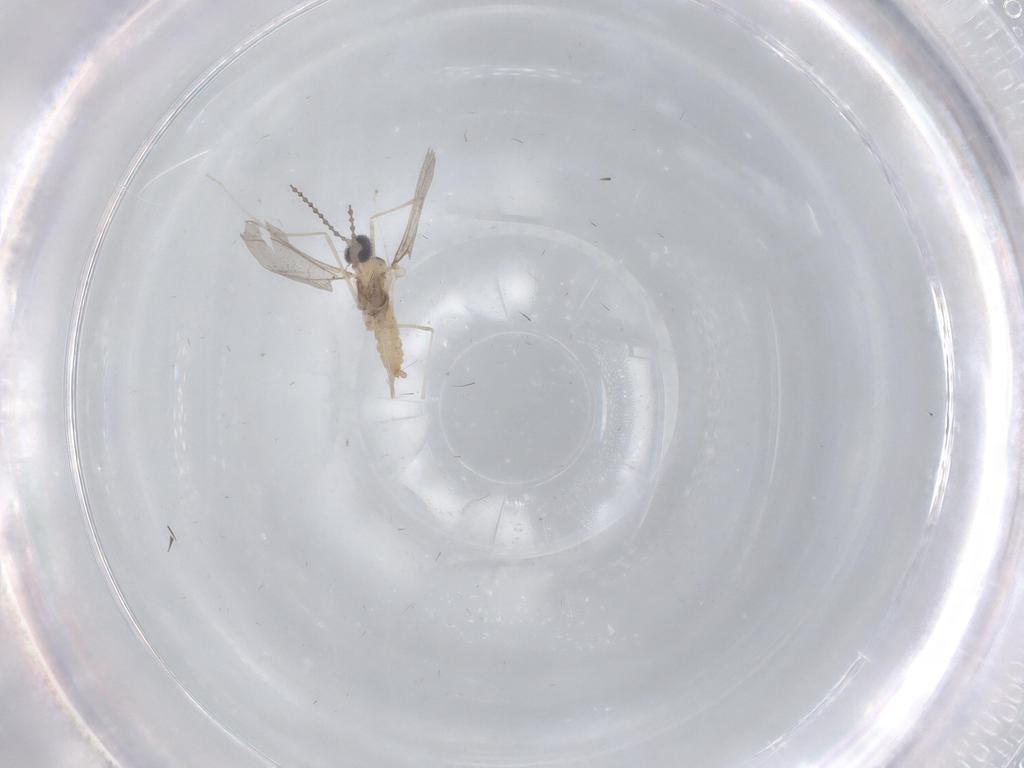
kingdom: Animalia
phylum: Arthropoda
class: Insecta
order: Diptera
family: Cecidomyiidae
